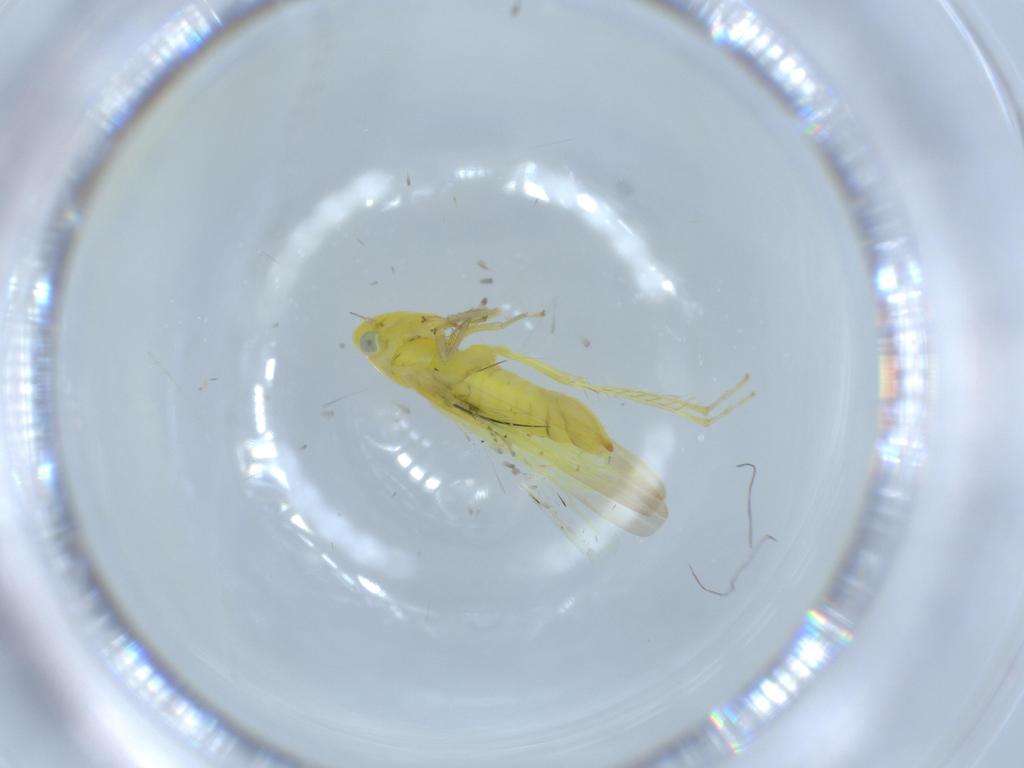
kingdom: Animalia
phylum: Arthropoda
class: Insecta
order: Hemiptera
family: Cicadellidae
